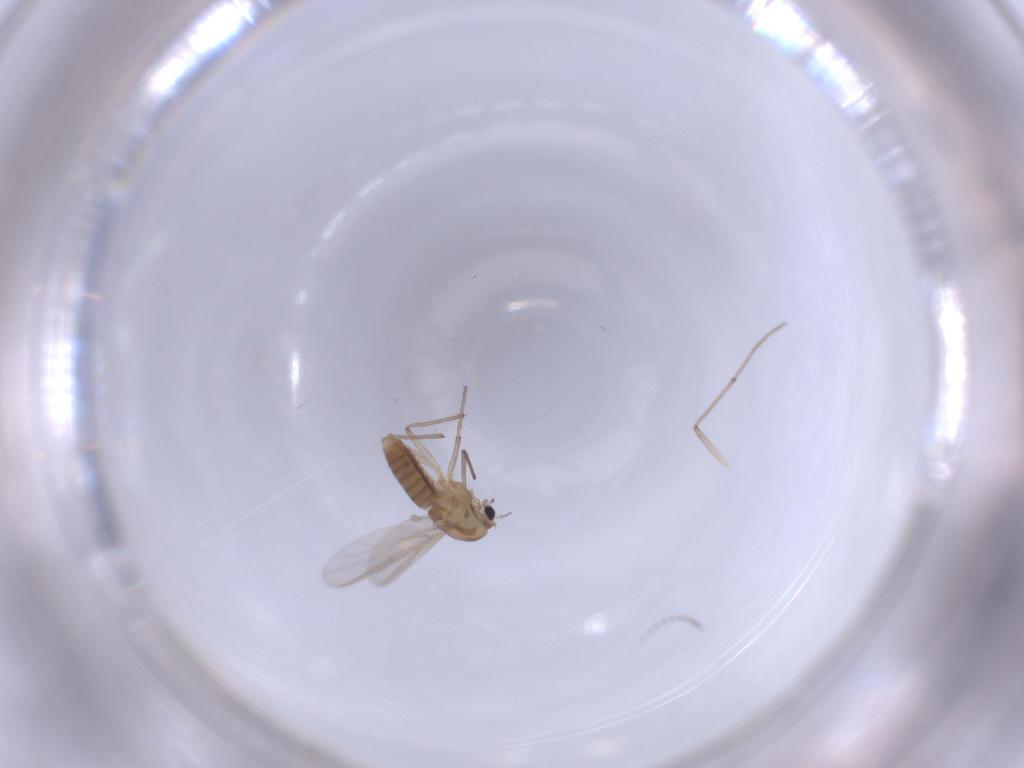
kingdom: Animalia
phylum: Arthropoda
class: Insecta
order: Diptera
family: Chironomidae
